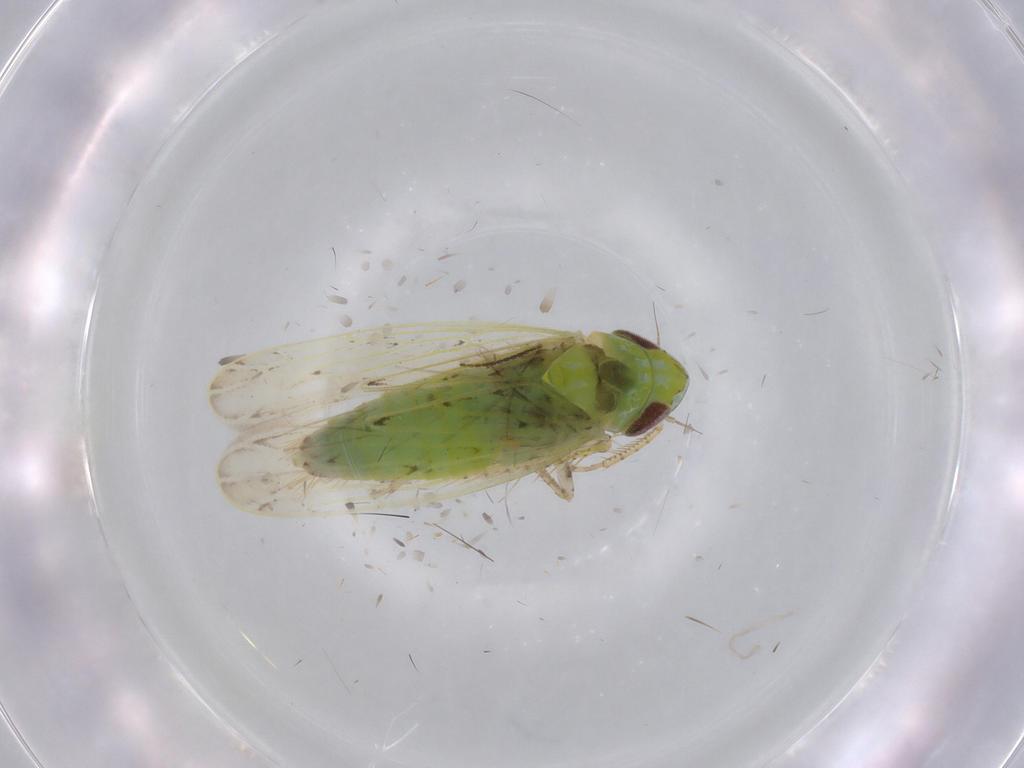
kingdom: Animalia
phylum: Arthropoda
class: Insecta
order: Hemiptera
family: Cicadellidae
